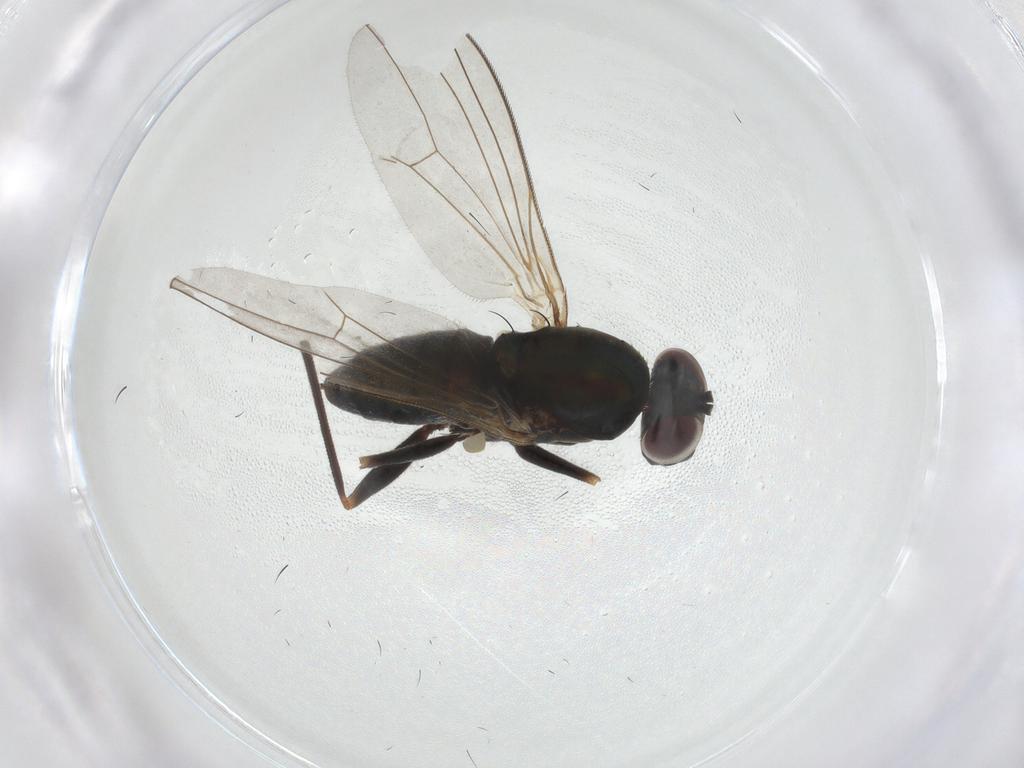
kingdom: Animalia
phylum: Arthropoda
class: Insecta
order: Diptera
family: Dolichopodidae
